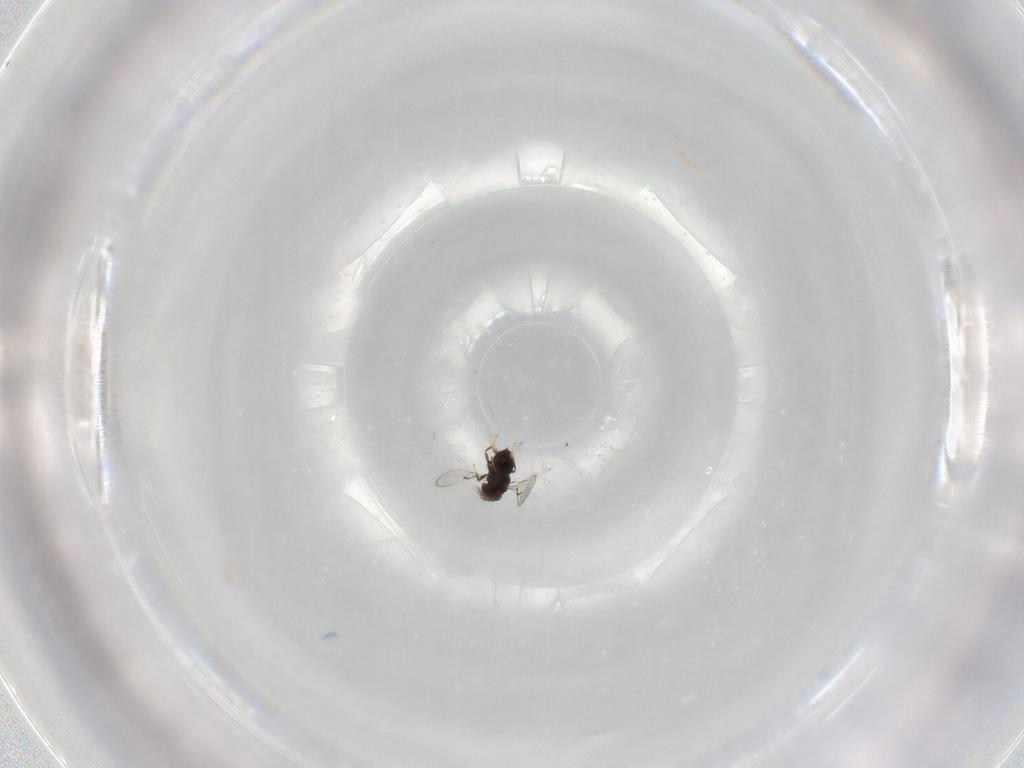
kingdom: Animalia
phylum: Arthropoda
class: Insecta
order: Hymenoptera
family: Trichogrammatidae
